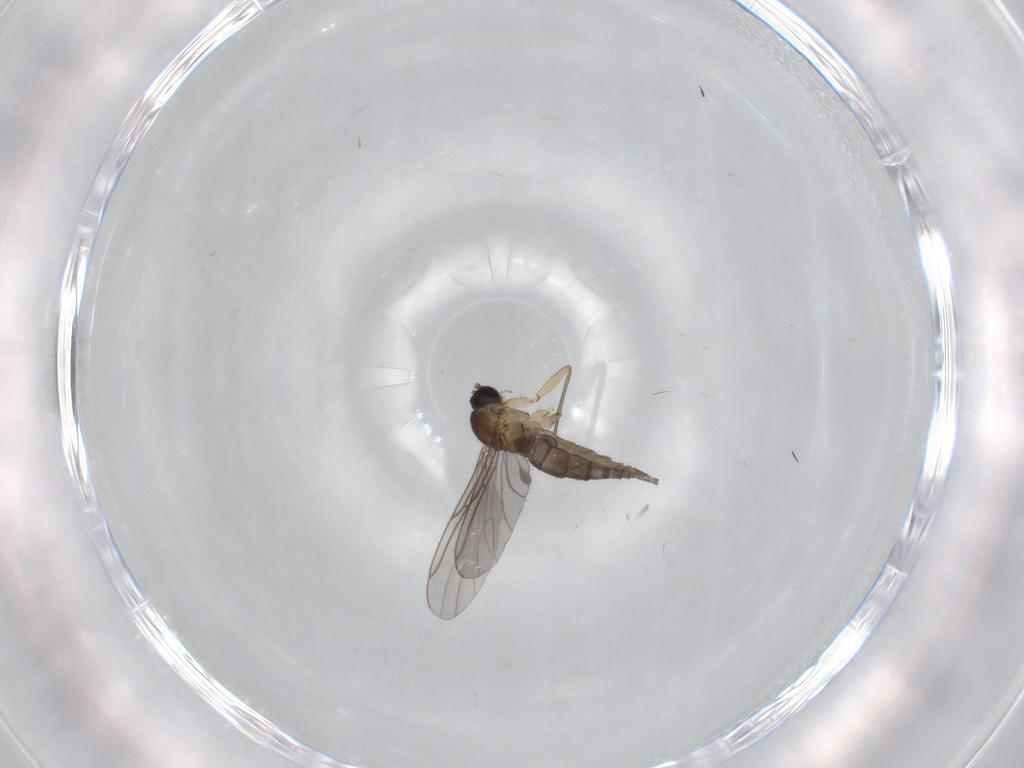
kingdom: Animalia
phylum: Arthropoda
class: Insecta
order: Diptera
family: Sciaridae
